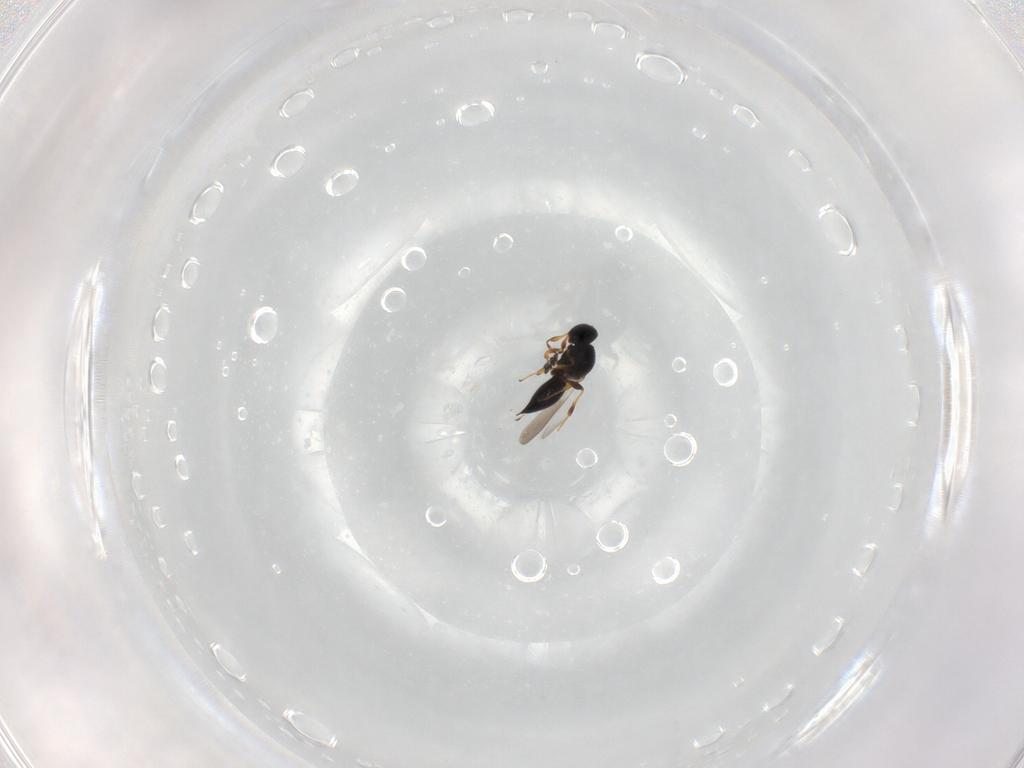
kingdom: Animalia
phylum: Arthropoda
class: Insecta
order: Hymenoptera
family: Platygastridae
